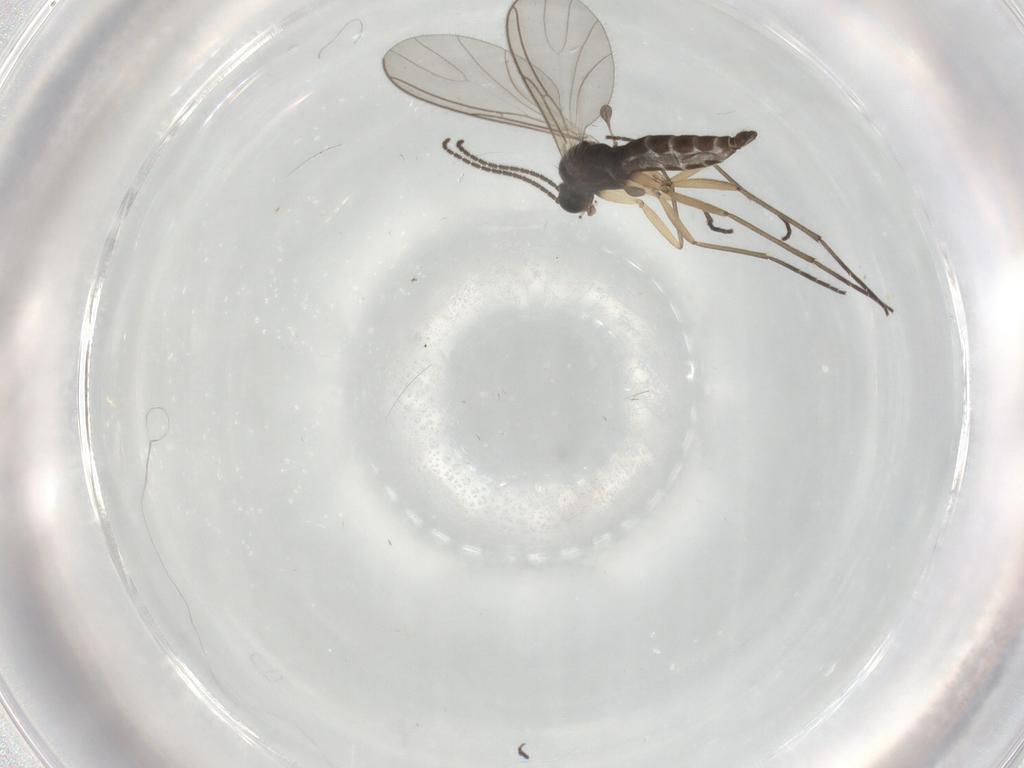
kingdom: Animalia
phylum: Arthropoda
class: Insecta
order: Diptera
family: Sciaridae
